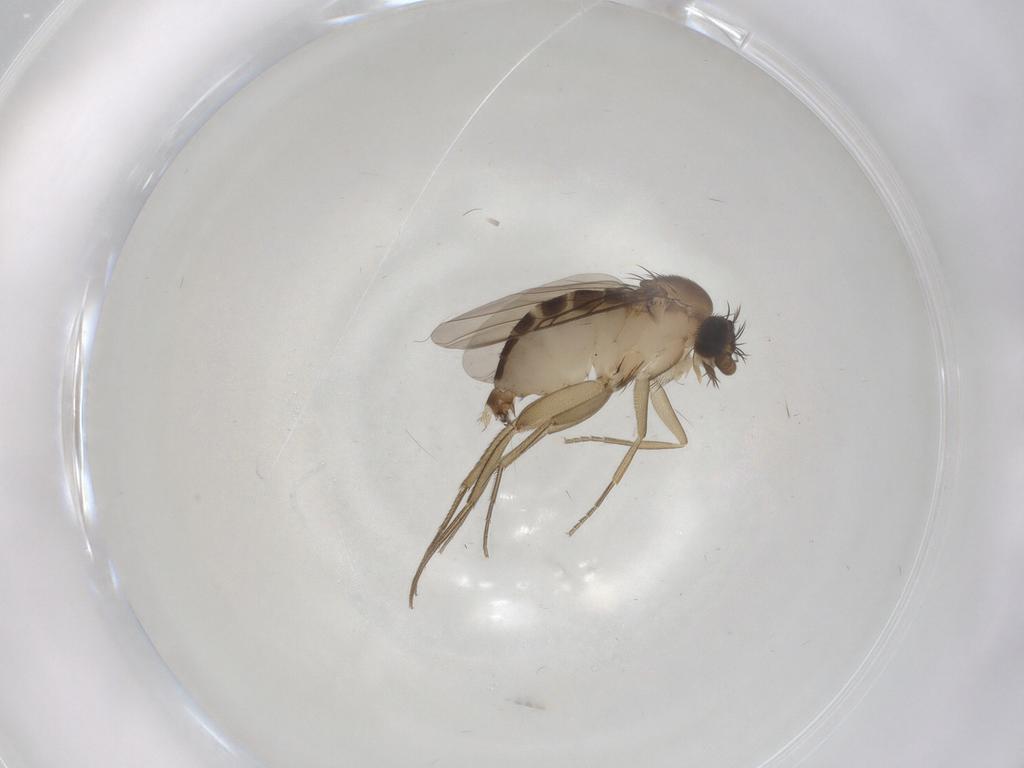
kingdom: Animalia
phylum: Arthropoda
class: Insecta
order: Diptera
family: Phoridae
